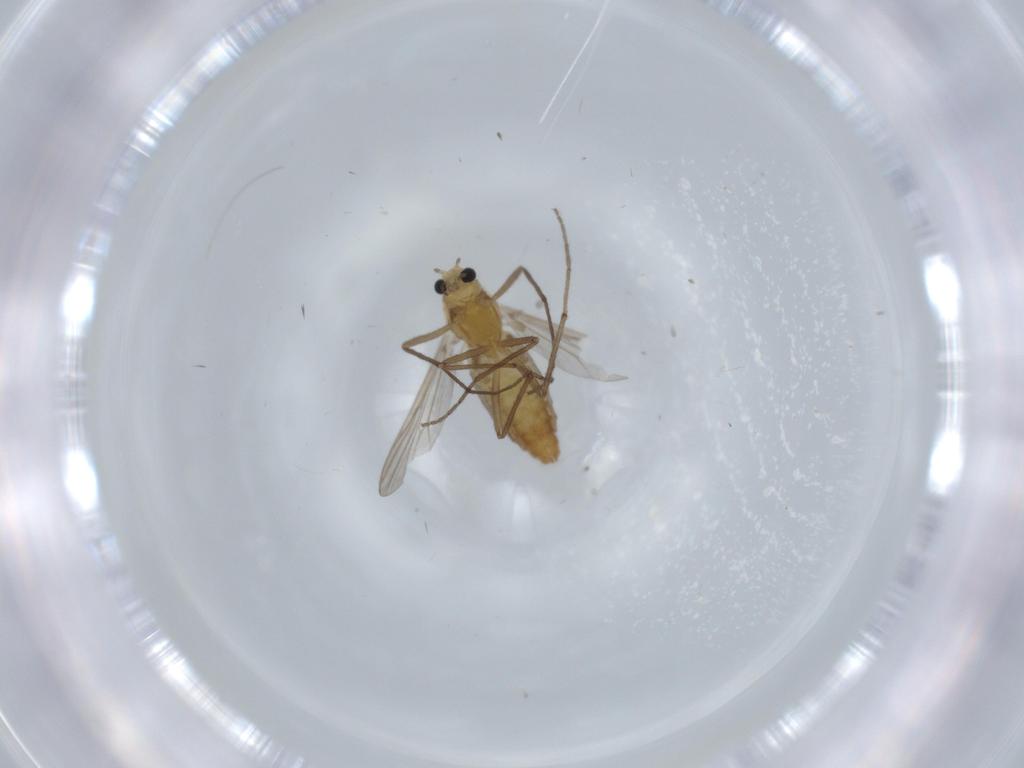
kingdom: Animalia
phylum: Arthropoda
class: Insecta
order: Diptera
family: Chironomidae
